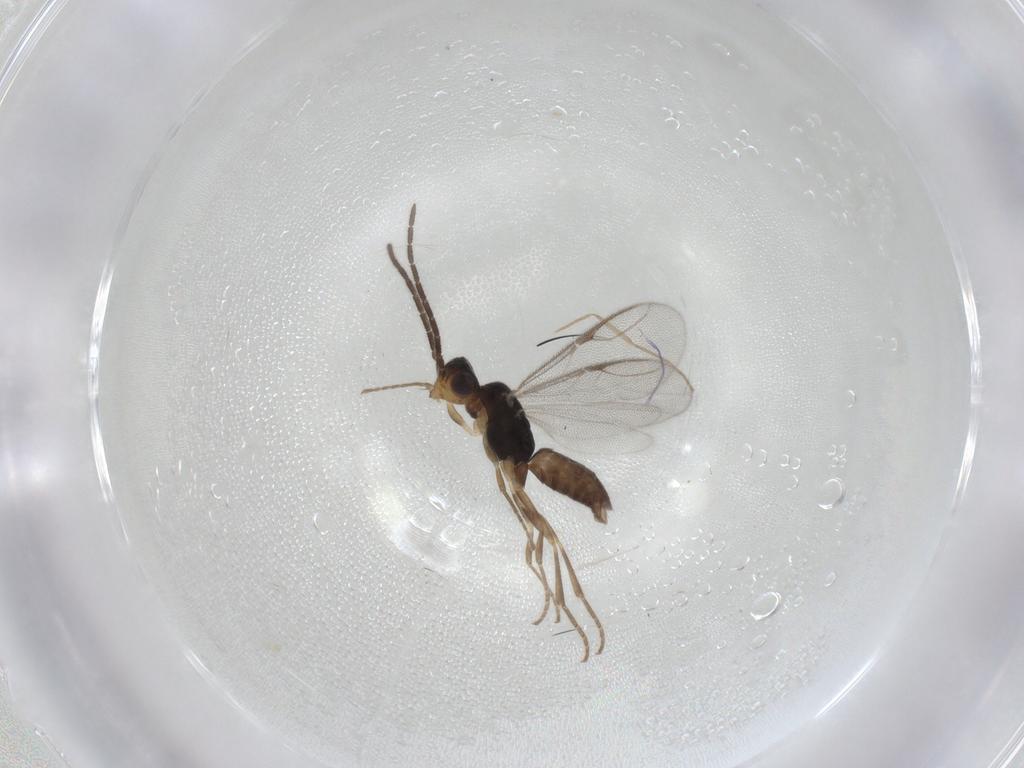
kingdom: Animalia
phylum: Arthropoda
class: Insecta
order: Hymenoptera
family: Dryinidae
